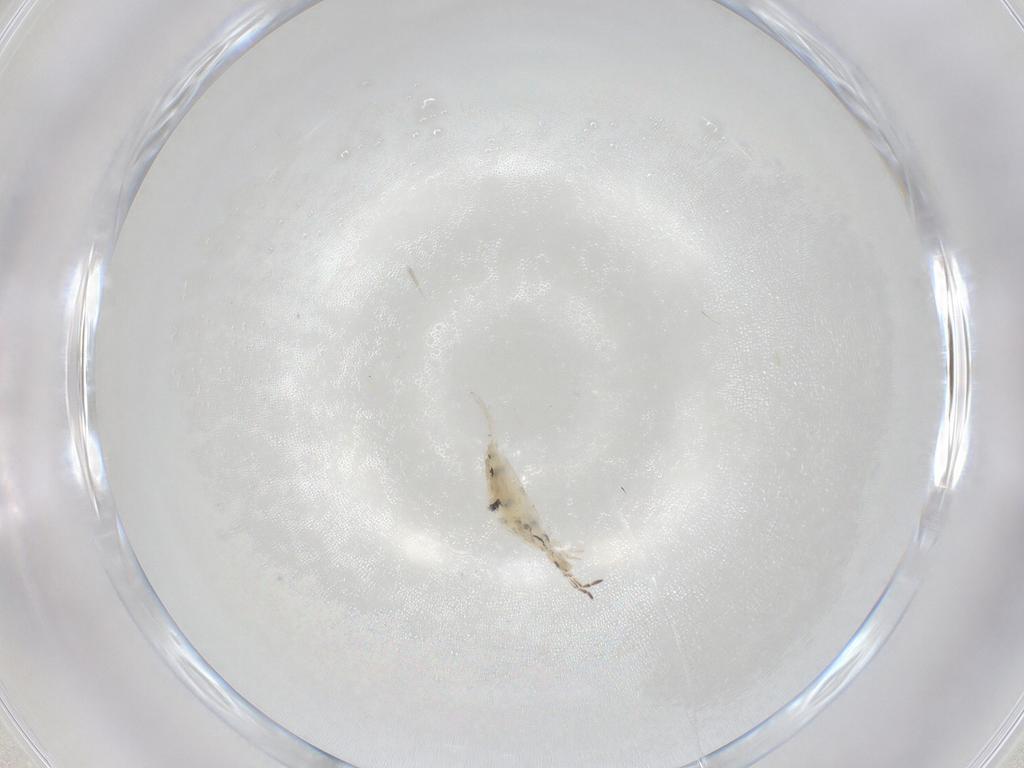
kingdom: Animalia
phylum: Arthropoda
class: Collembola
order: Entomobryomorpha
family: Entomobryidae
